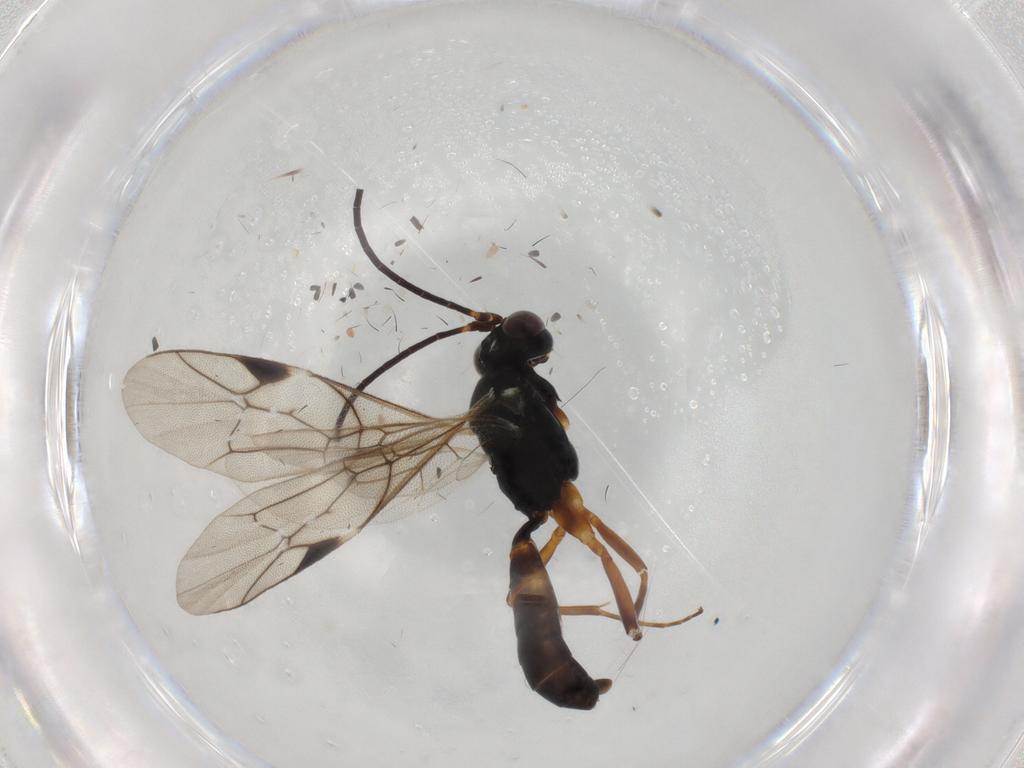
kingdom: Animalia
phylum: Arthropoda
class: Insecta
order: Hymenoptera
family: Ichneumonidae
